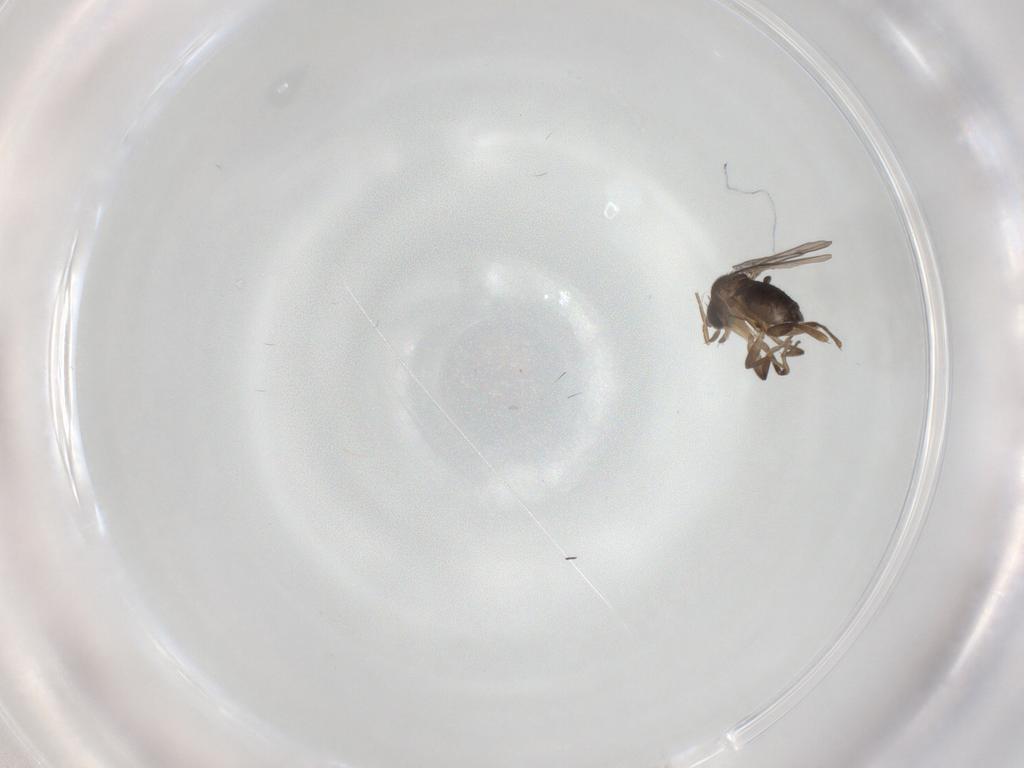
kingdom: Animalia
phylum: Arthropoda
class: Insecta
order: Diptera
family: Phoridae
